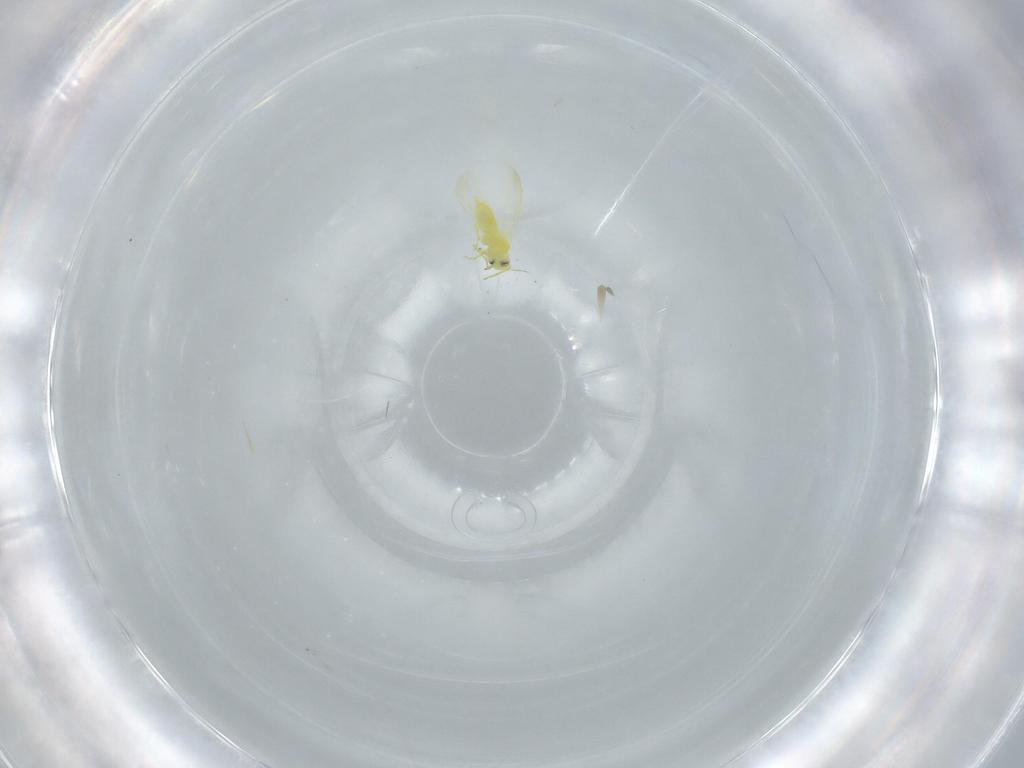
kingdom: Animalia
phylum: Arthropoda
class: Insecta
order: Hemiptera
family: Aleyrodidae
